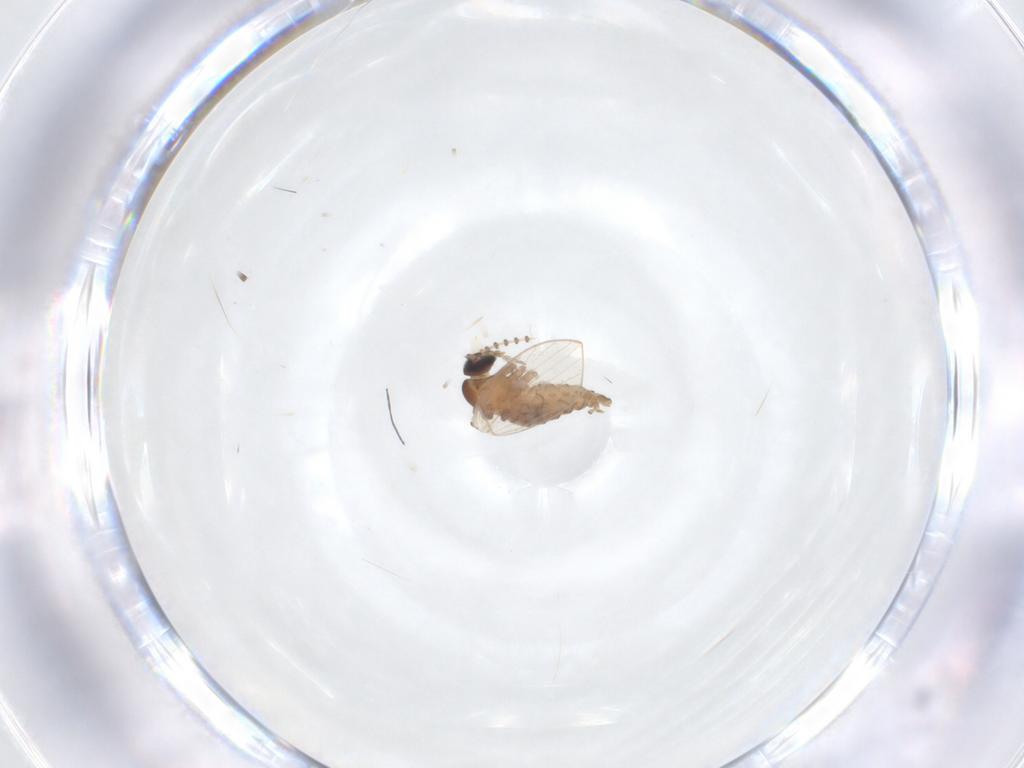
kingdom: Animalia
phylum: Arthropoda
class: Insecta
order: Diptera
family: Psychodidae
